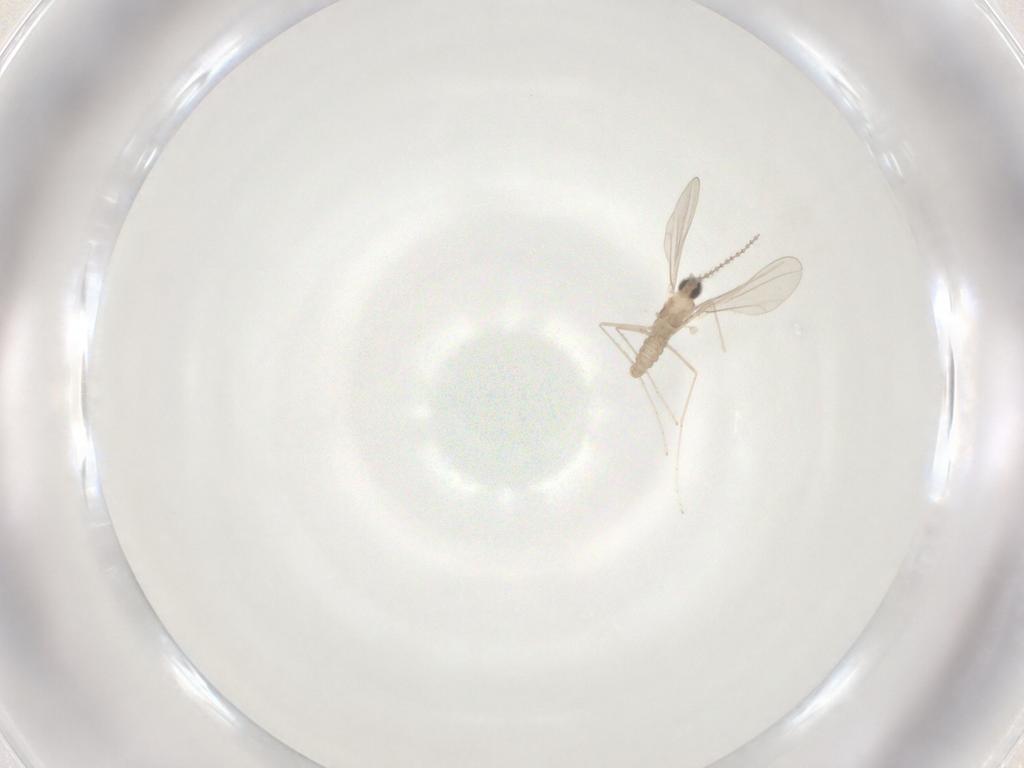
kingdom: Animalia
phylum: Arthropoda
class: Insecta
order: Diptera
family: Cecidomyiidae
